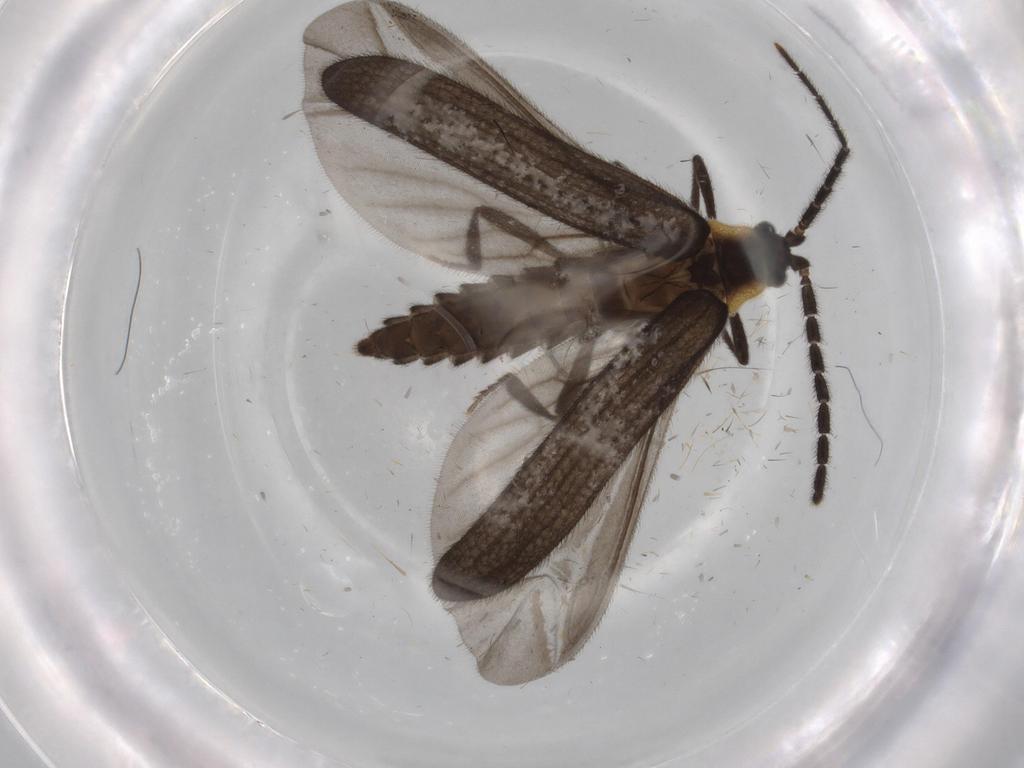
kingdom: Animalia
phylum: Arthropoda
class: Insecta
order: Coleoptera
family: Lycidae
